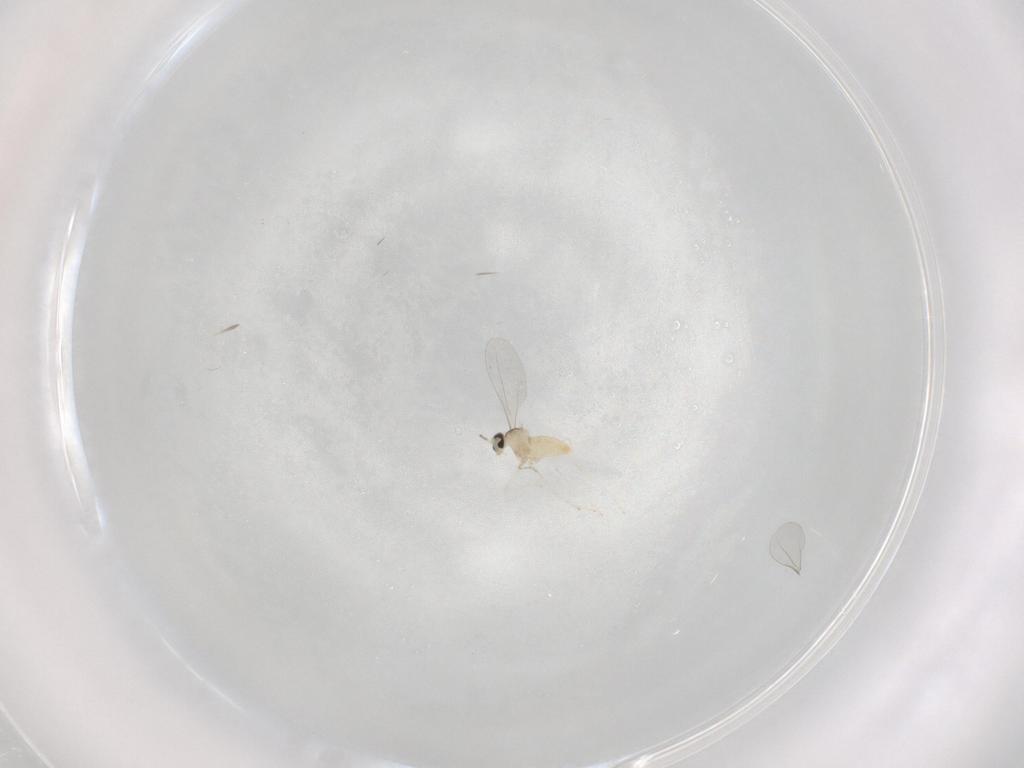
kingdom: Animalia
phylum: Arthropoda
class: Insecta
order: Diptera
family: Cecidomyiidae
